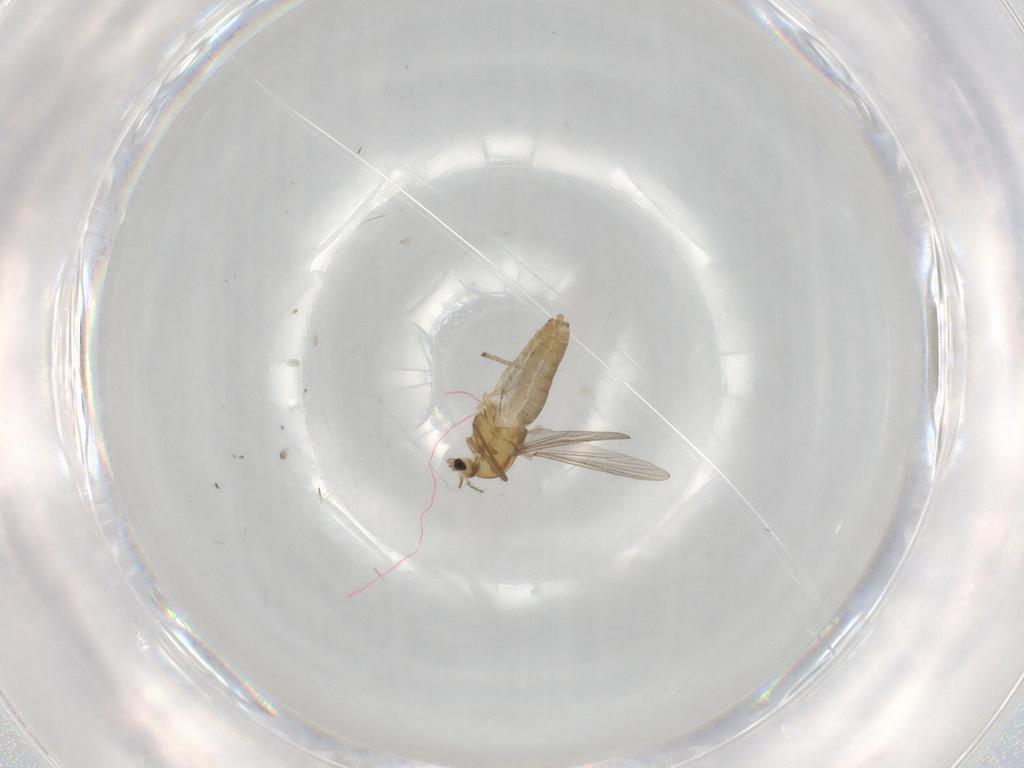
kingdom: Animalia
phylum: Arthropoda
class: Insecta
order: Diptera
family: Chironomidae
